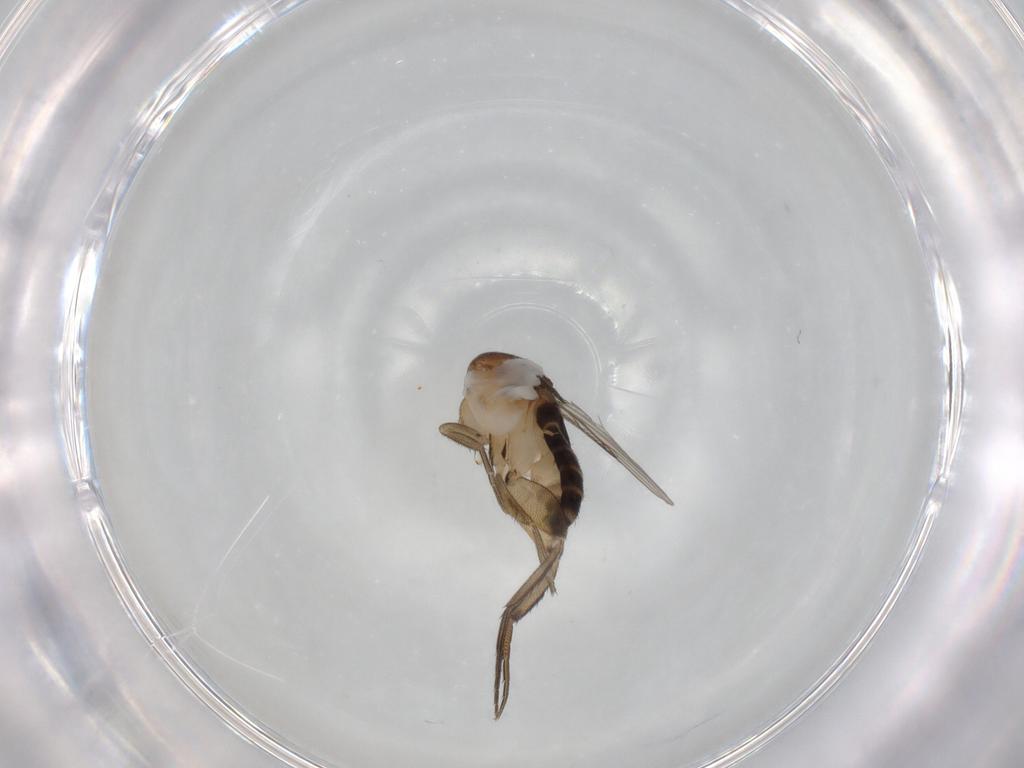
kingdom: Animalia
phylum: Arthropoda
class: Insecta
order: Diptera
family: Phoridae
